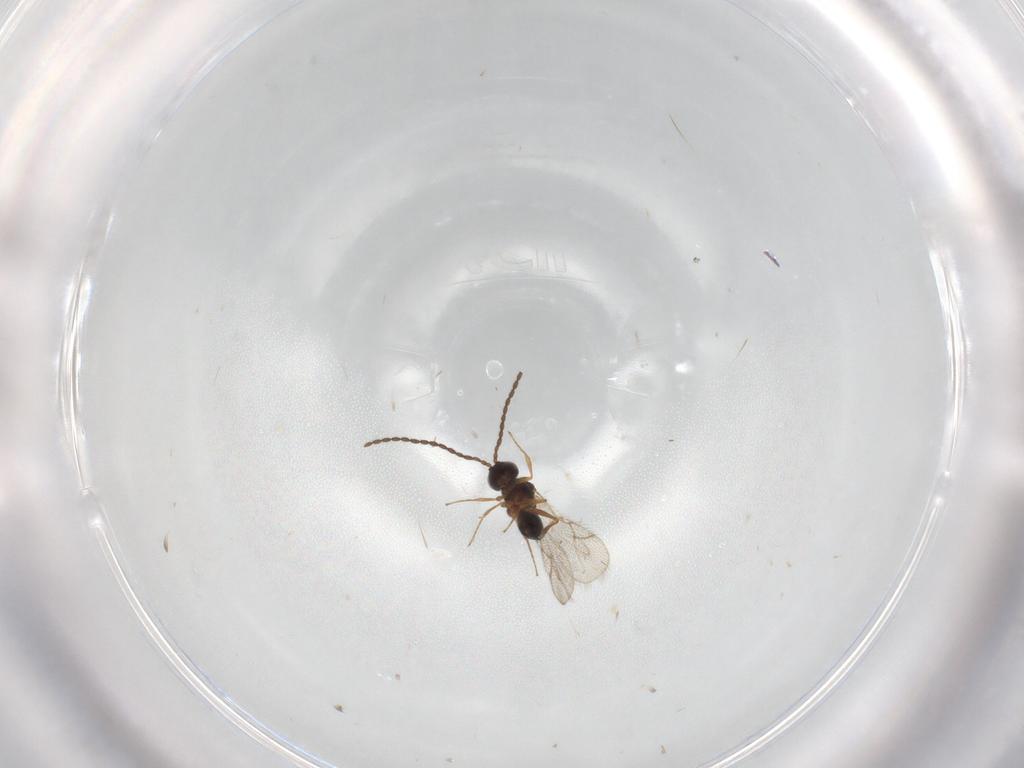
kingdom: Animalia
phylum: Arthropoda
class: Insecta
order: Hymenoptera
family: Figitidae
